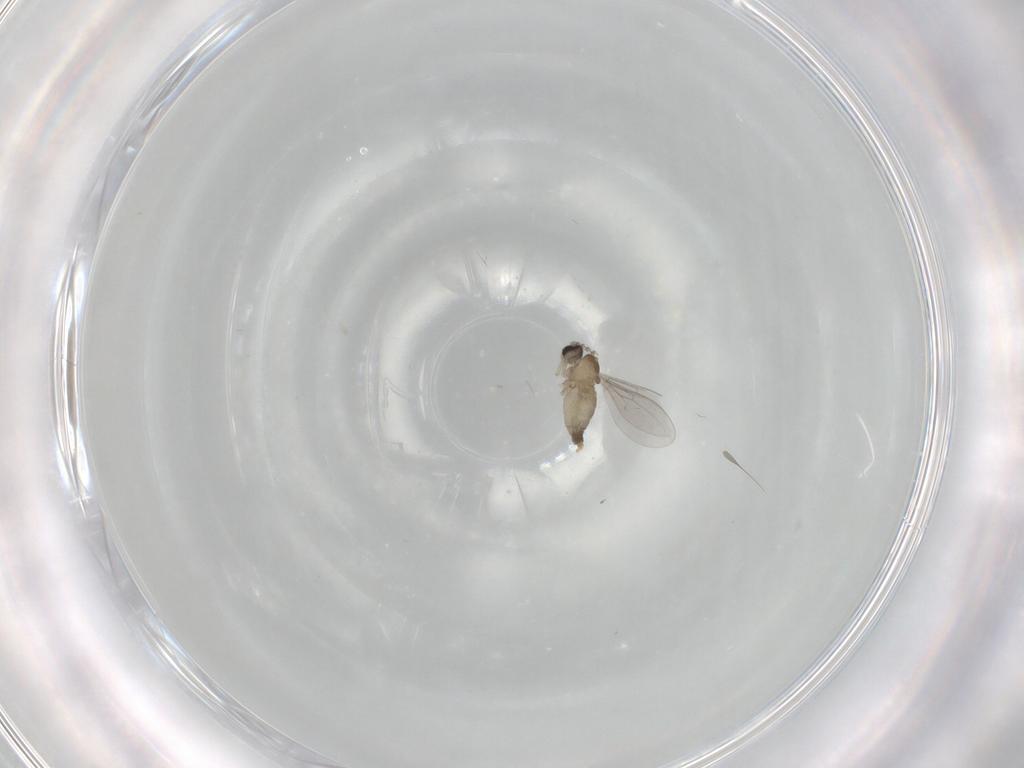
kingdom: Animalia
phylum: Arthropoda
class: Insecta
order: Diptera
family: Cecidomyiidae
